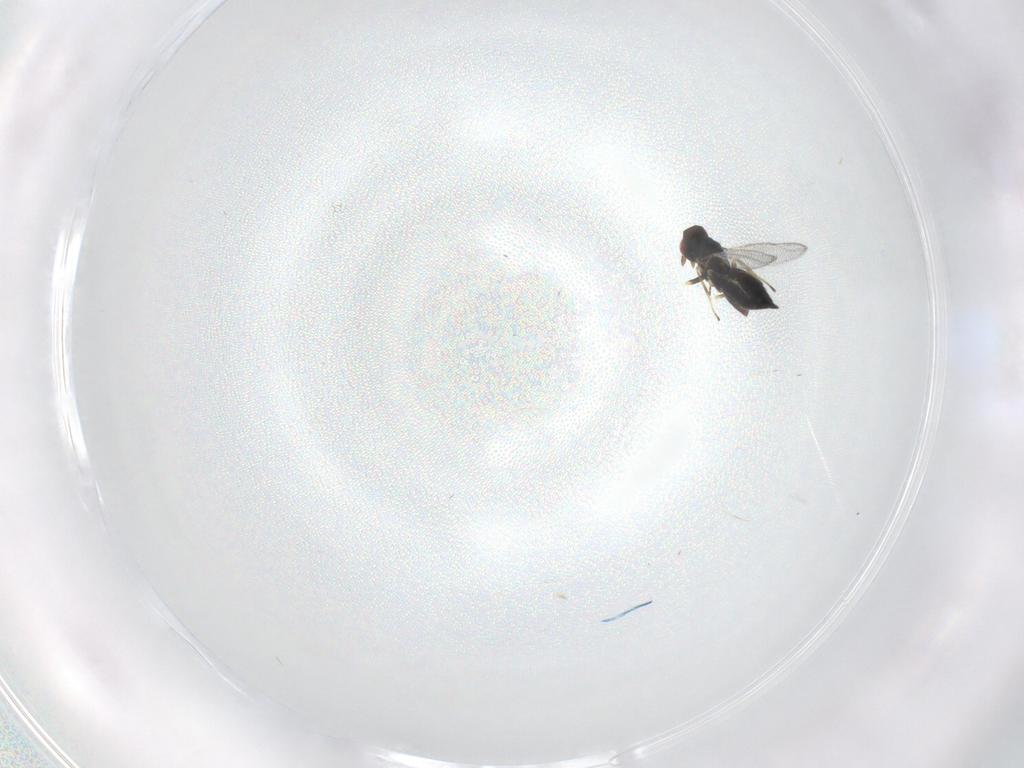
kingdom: Animalia
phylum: Arthropoda
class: Insecta
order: Hymenoptera
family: Eulophidae
